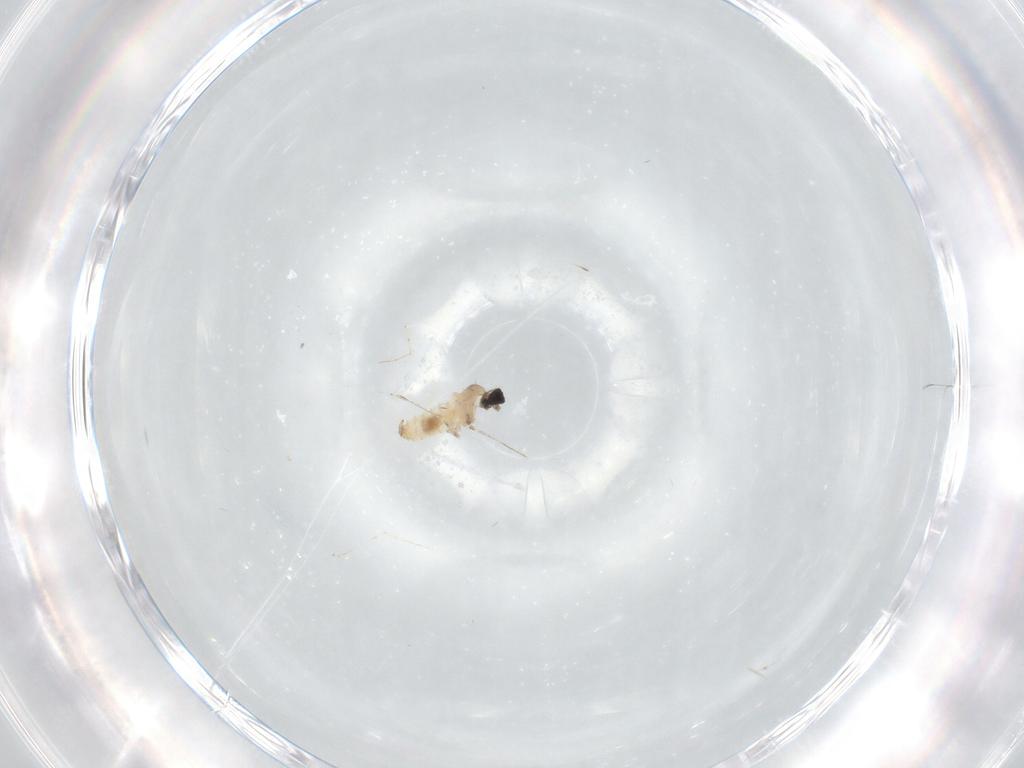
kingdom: Animalia
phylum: Arthropoda
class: Insecta
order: Diptera
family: Cecidomyiidae
